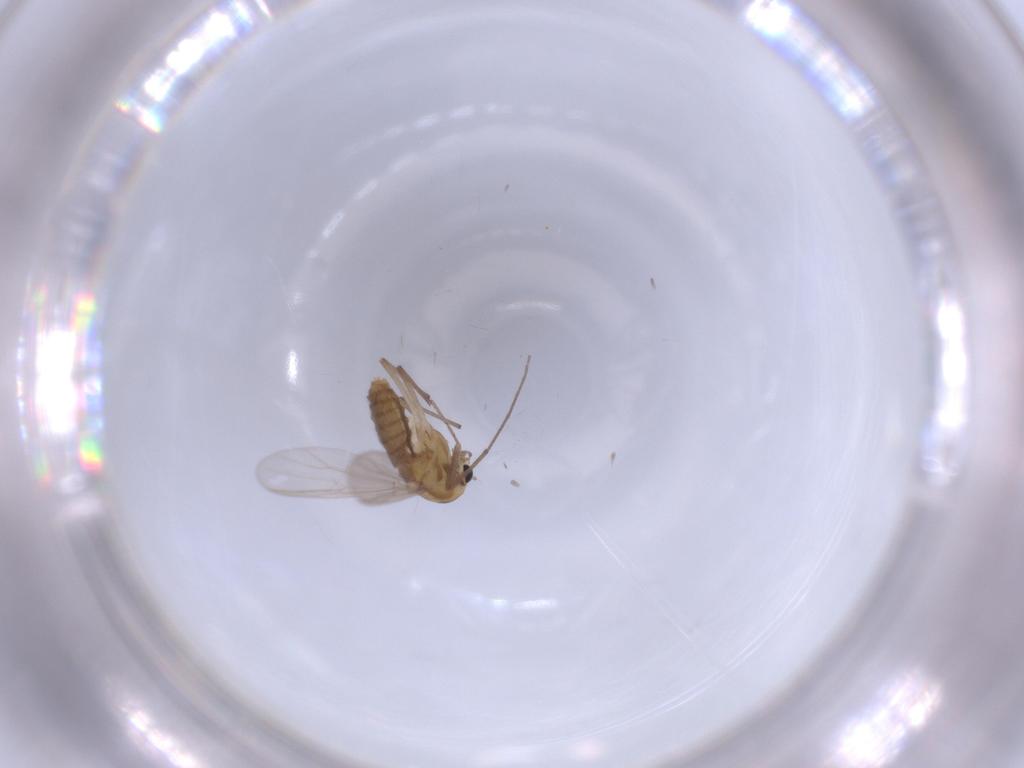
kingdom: Animalia
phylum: Arthropoda
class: Insecta
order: Diptera
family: Chironomidae
